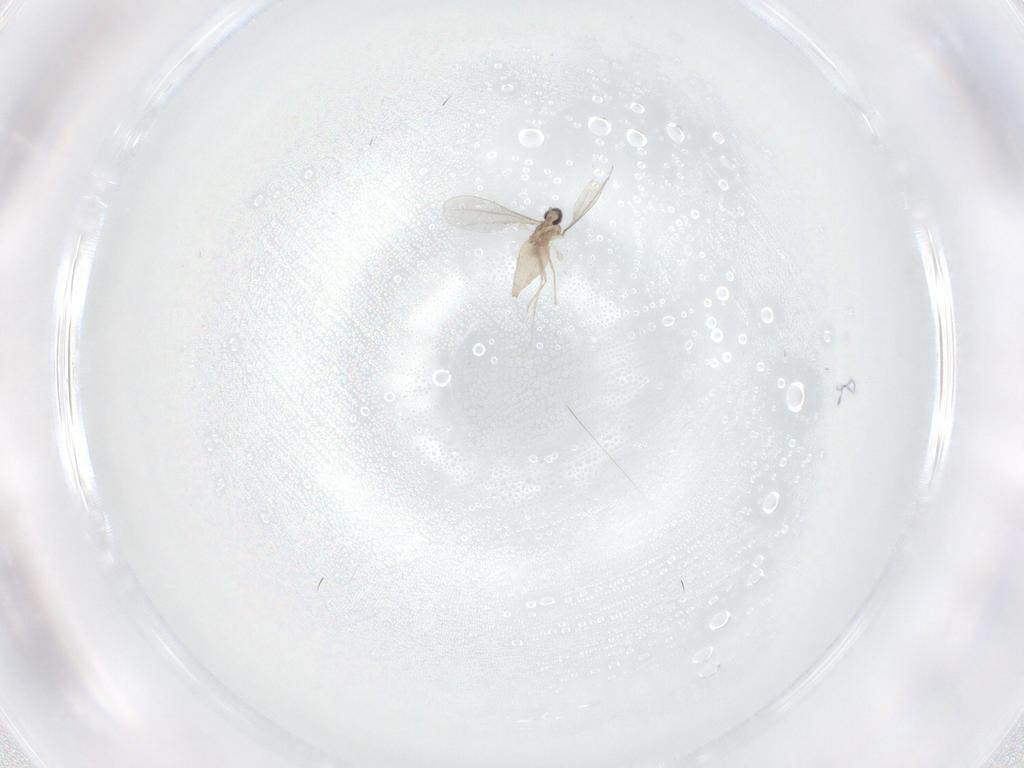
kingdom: Animalia
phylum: Arthropoda
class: Insecta
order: Diptera
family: Cecidomyiidae
